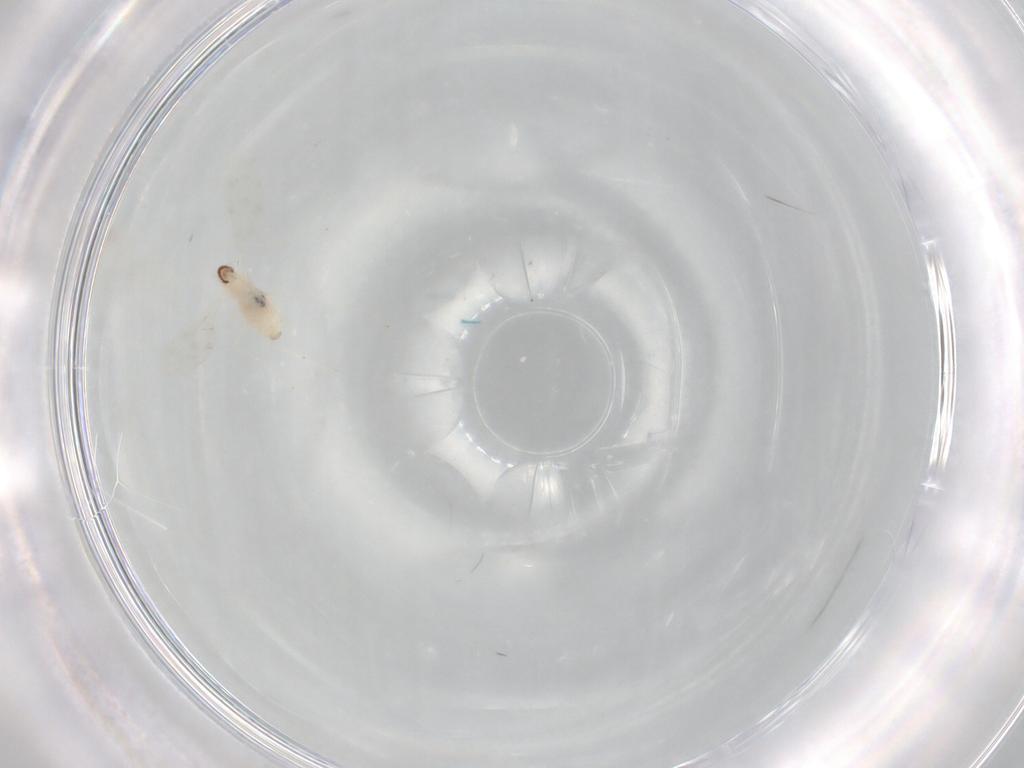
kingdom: Animalia
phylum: Arthropoda
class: Insecta
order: Diptera
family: Cecidomyiidae
